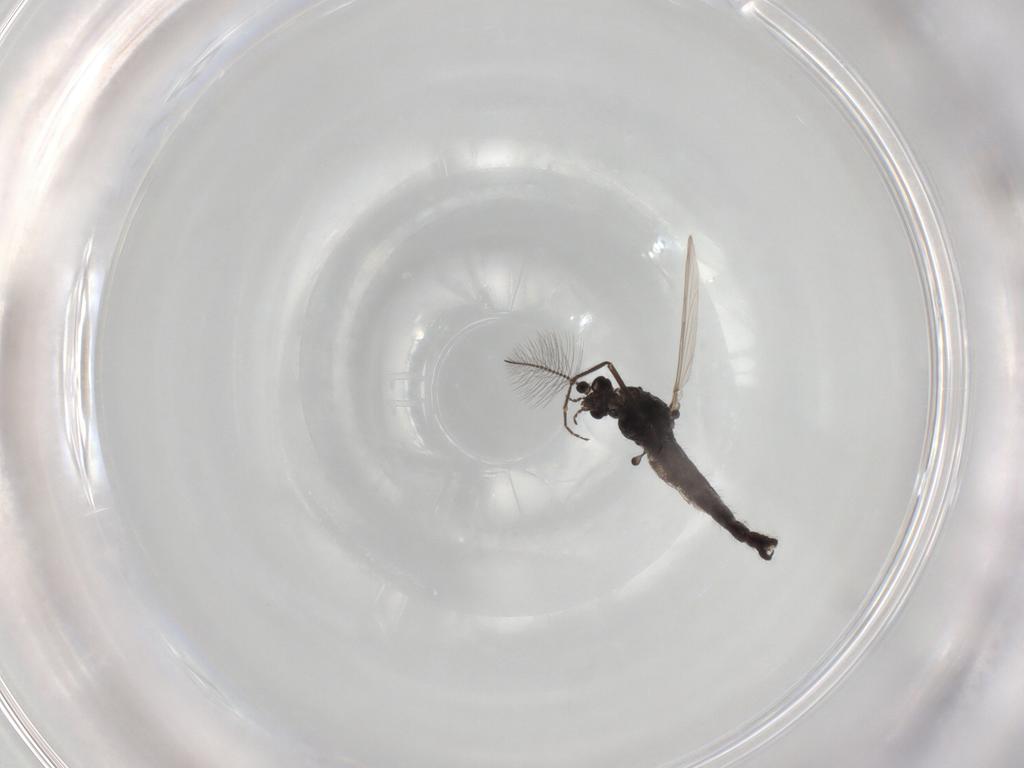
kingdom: Animalia
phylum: Arthropoda
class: Insecta
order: Diptera
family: Chironomidae
